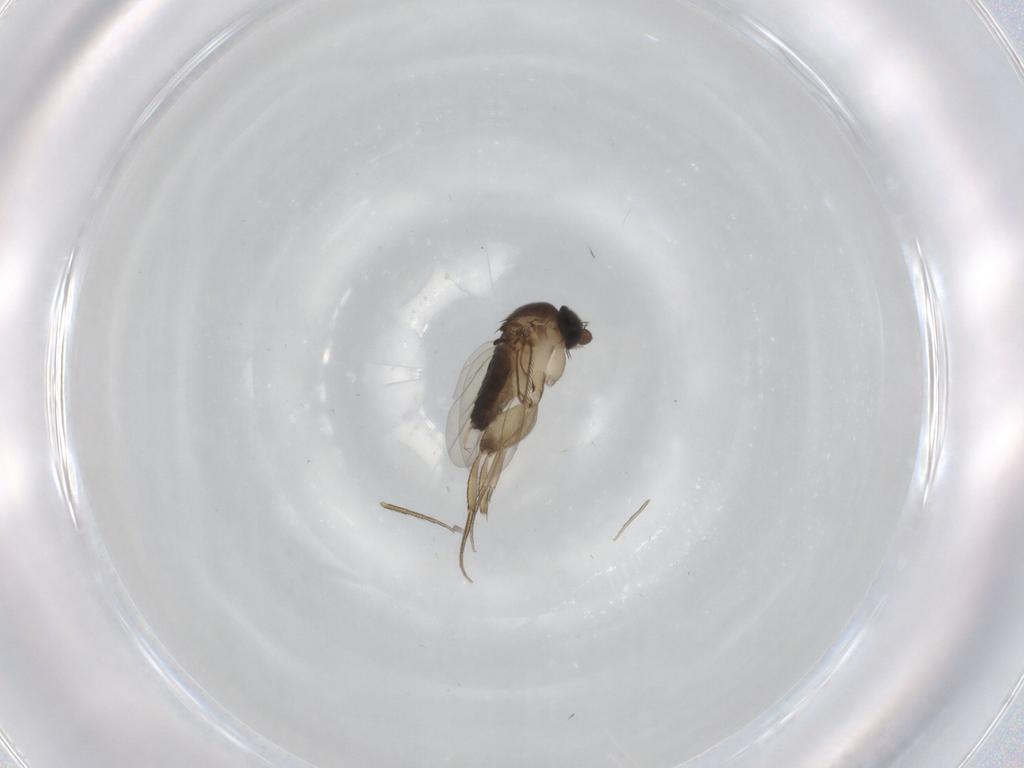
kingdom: Animalia
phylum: Arthropoda
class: Insecta
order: Diptera
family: Phoridae
